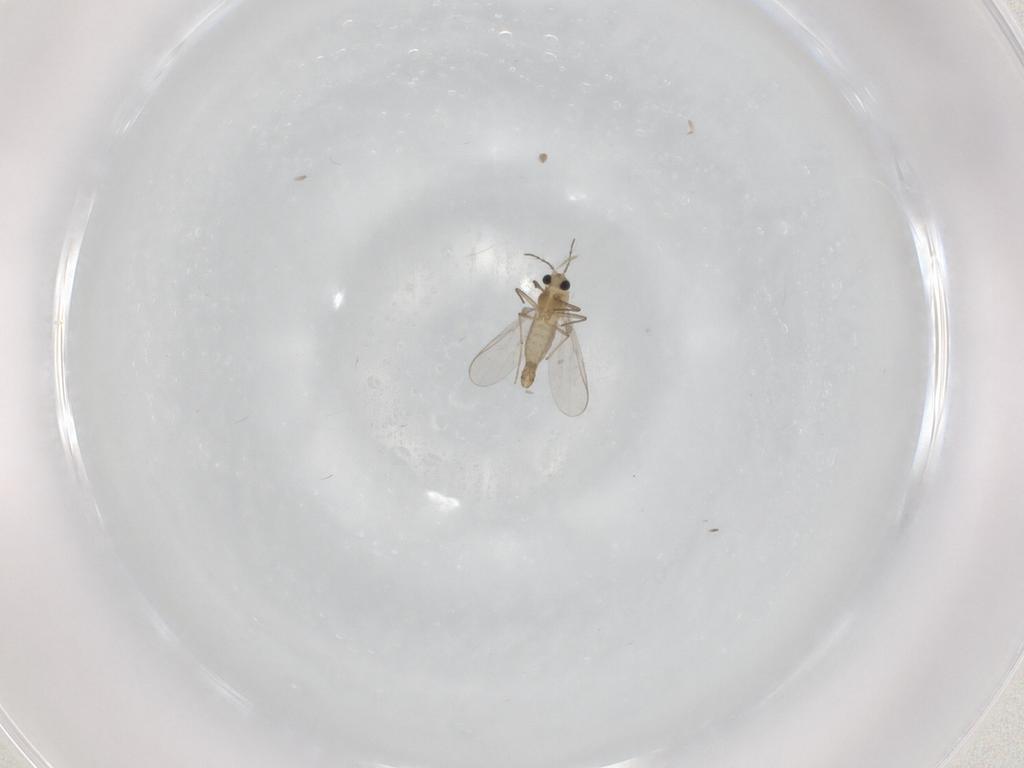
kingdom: Animalia
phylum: Arthropoda
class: Insecta
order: Diptera
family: Chironomidae
